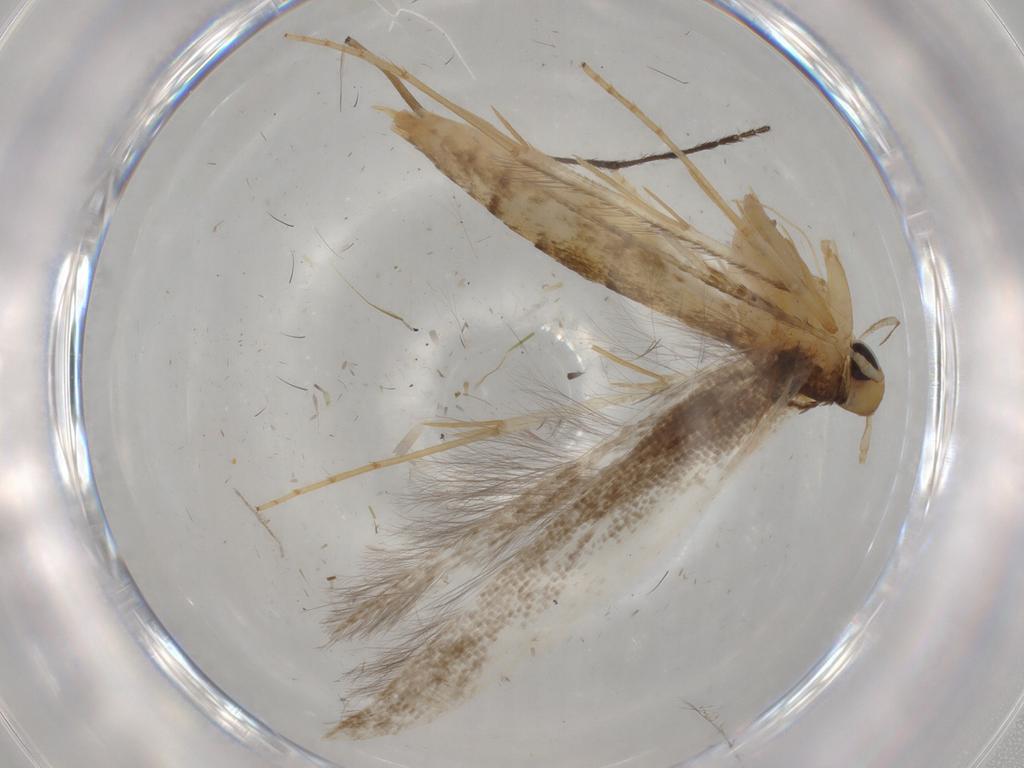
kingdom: Animalia
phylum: Arthropoda
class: Insecta
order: Lepidoptera
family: Pterolonchidae
